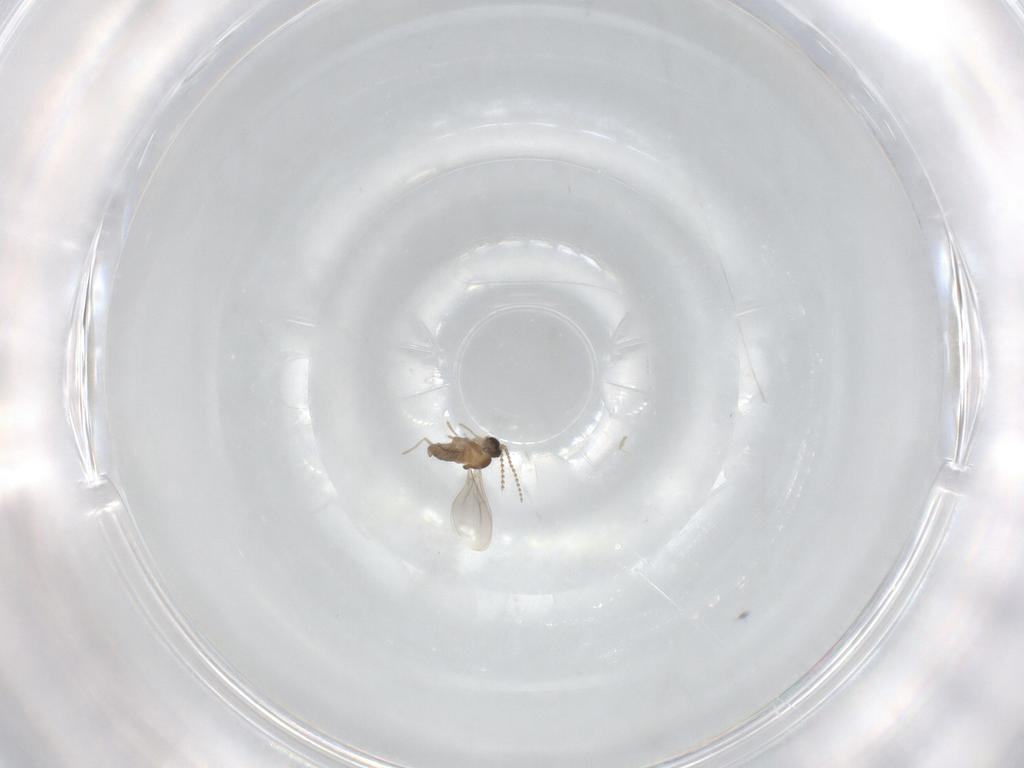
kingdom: Animalia
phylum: Arthropoda
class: Insecta
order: Diptera
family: Cecidomyiidae
